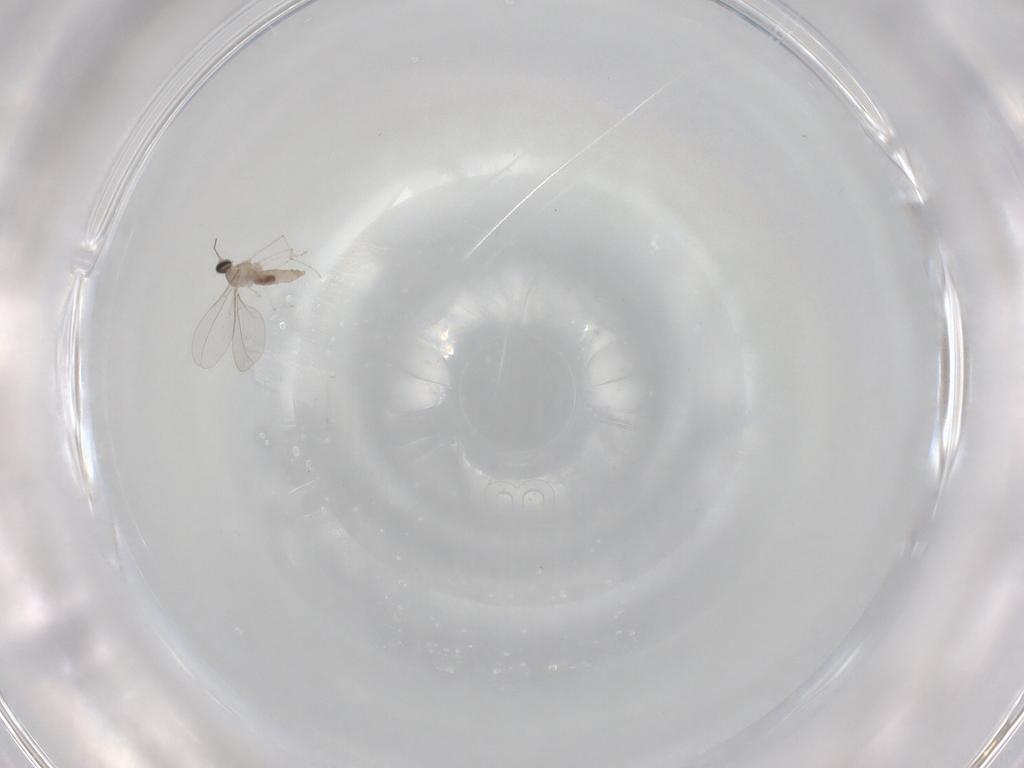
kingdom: Animalia
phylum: Arthropoda
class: Insecta
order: Diptera
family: Cecidomyiidae
